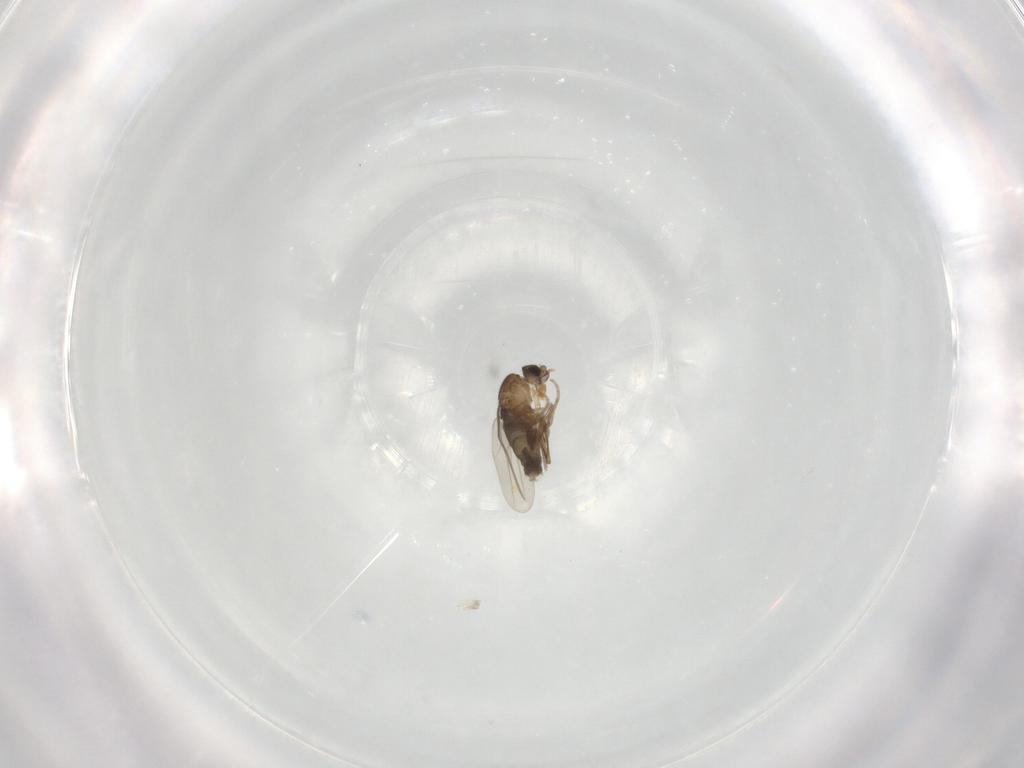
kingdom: Animalia
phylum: Arthropoda
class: Insecta
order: Diptera
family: Phoridae
